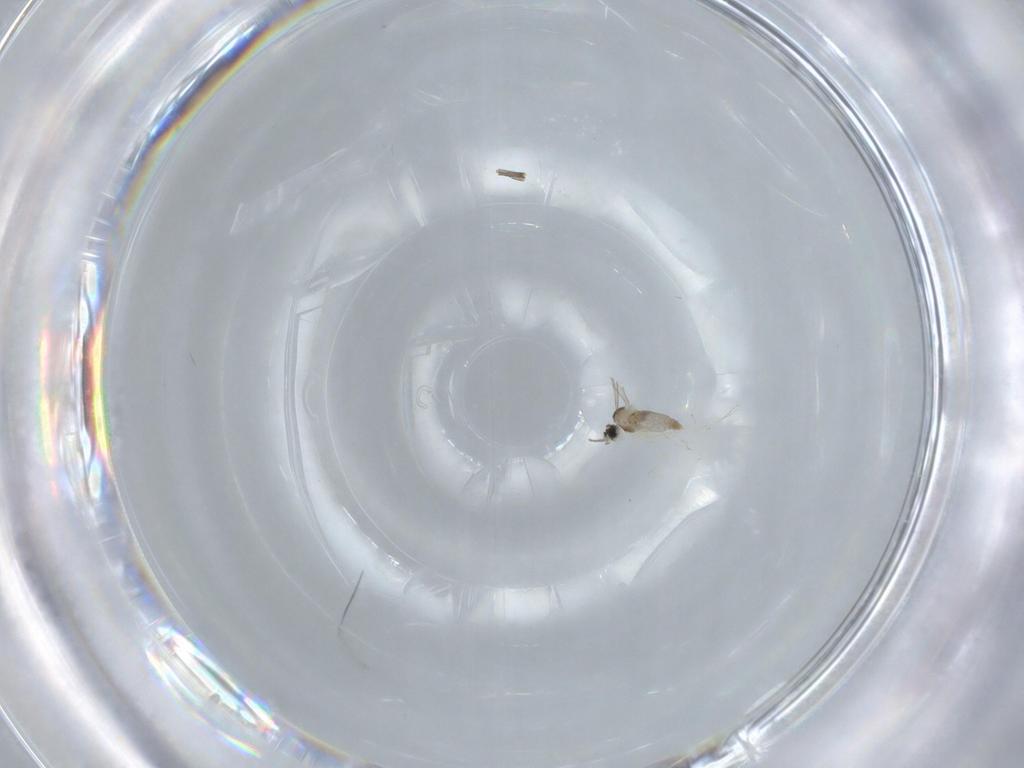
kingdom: Animalia
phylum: Arthropoda
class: Insecta
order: Diptera
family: Sciaridae
